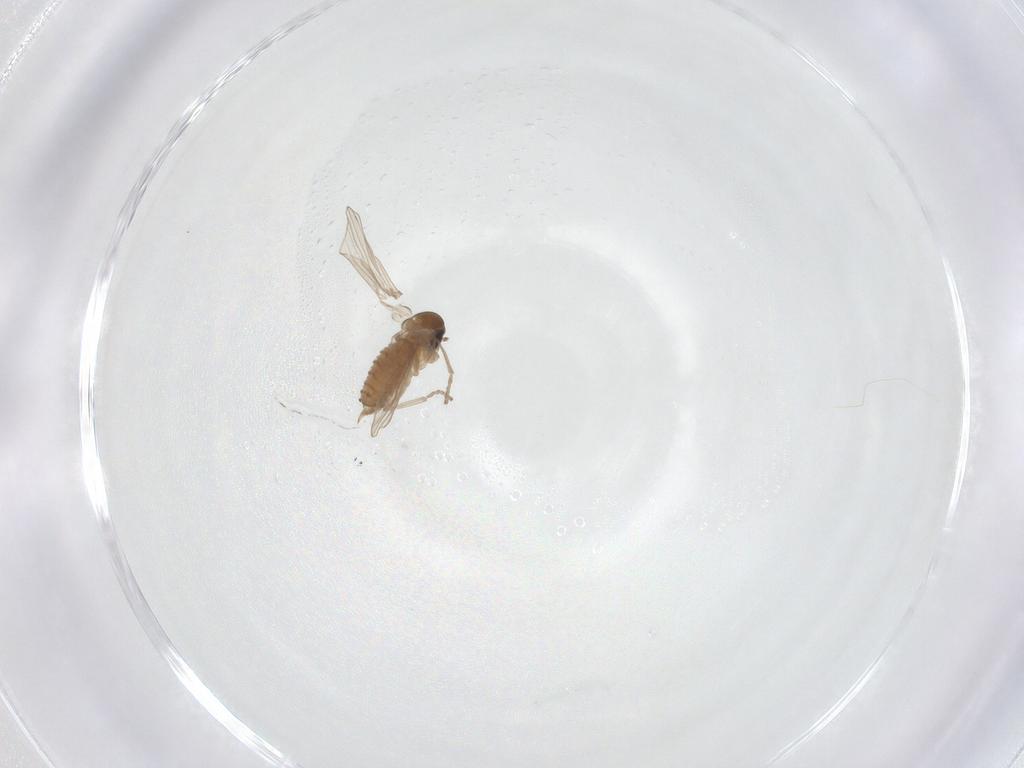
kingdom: Animalia
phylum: Arthropoda
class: Insecta
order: Diptera
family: Psychodidae
